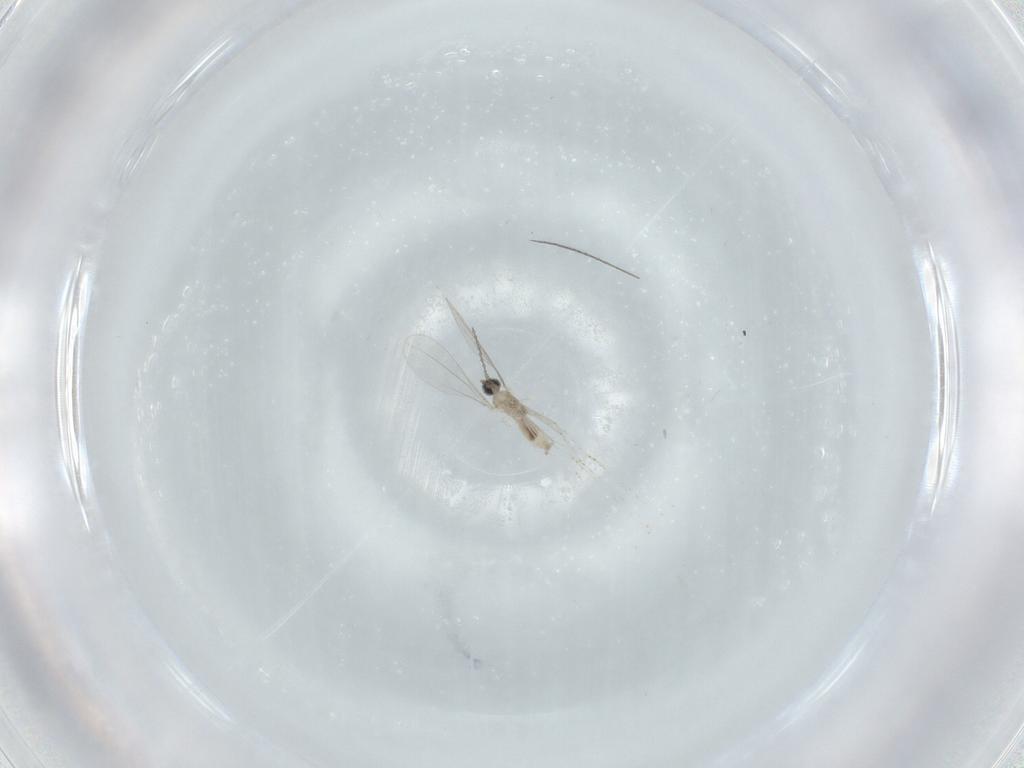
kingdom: Animalia
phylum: Arthropoda
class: Insecta
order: Diptera
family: Cecidomyiidae
